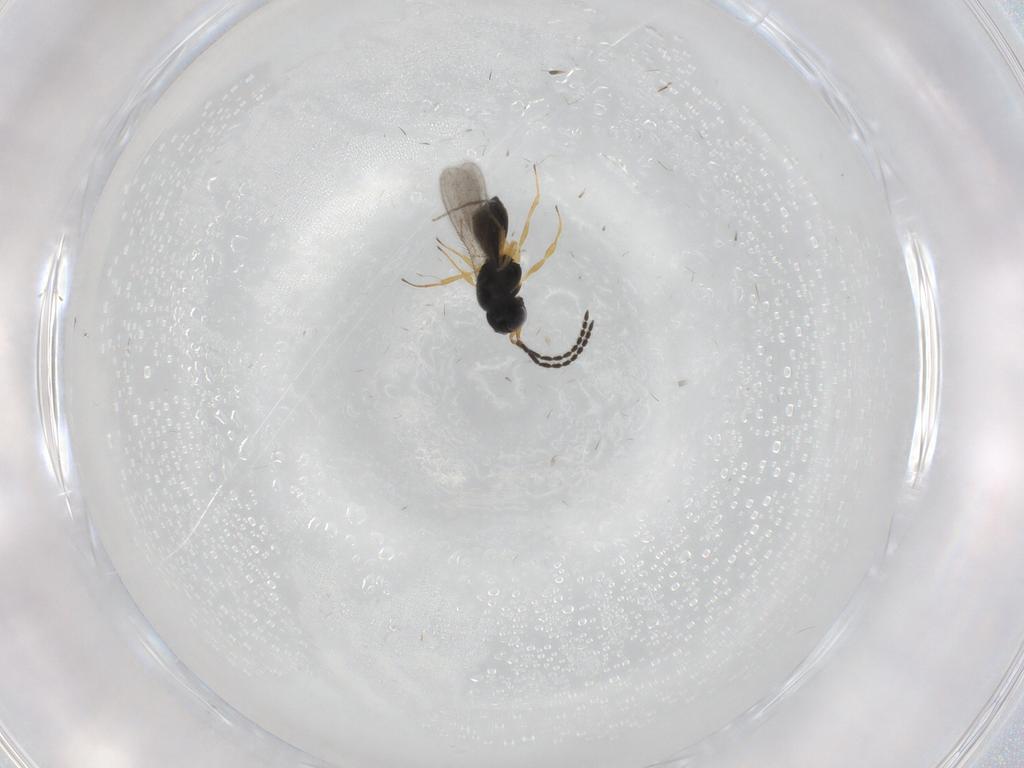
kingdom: Animalia
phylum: Arthropoda
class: Insecta
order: Hymenoptera
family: Scelionidae
